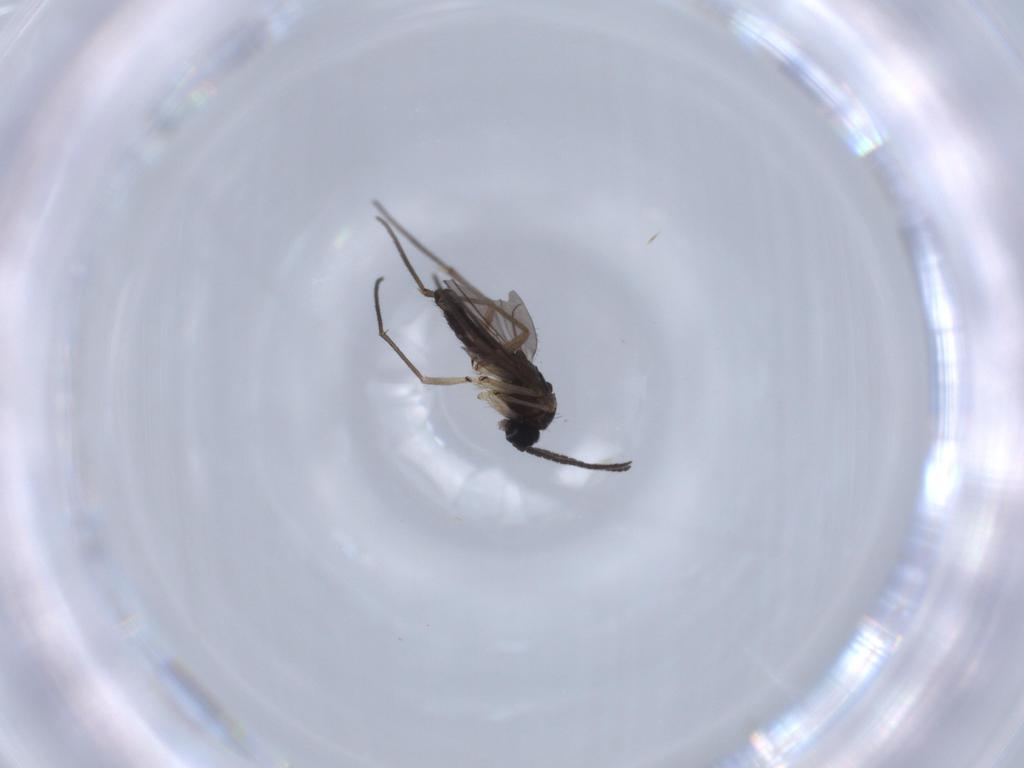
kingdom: Animalia
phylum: Arthropoda
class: Insecta
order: Diptera
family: Sciaridae
